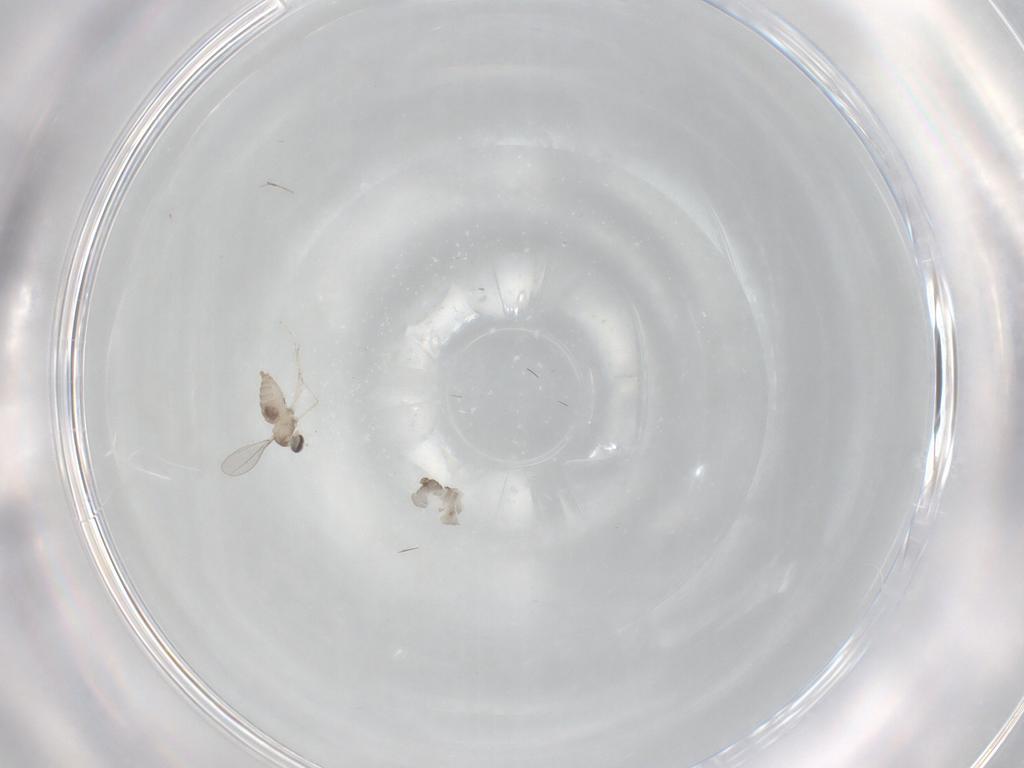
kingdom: Animalia
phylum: Arthropoda
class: Insecta
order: Diptera
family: Cecidomyiidae
